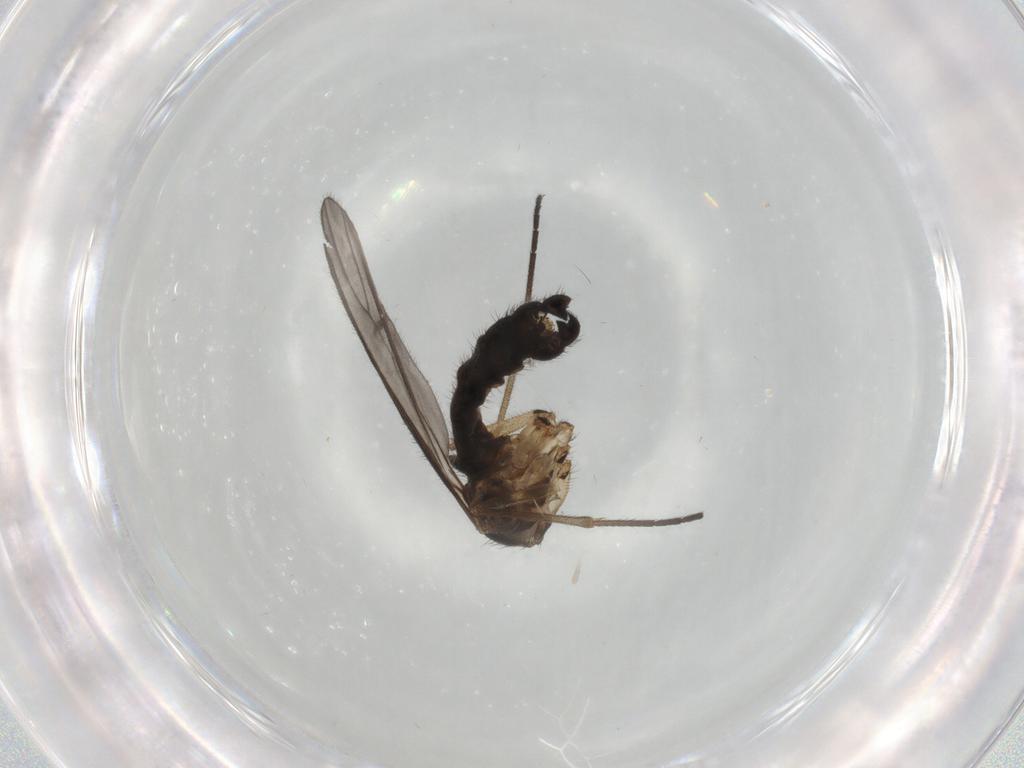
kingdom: Animalia
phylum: Arthropoda
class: Insecta
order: Diptera
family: Sciaridae
